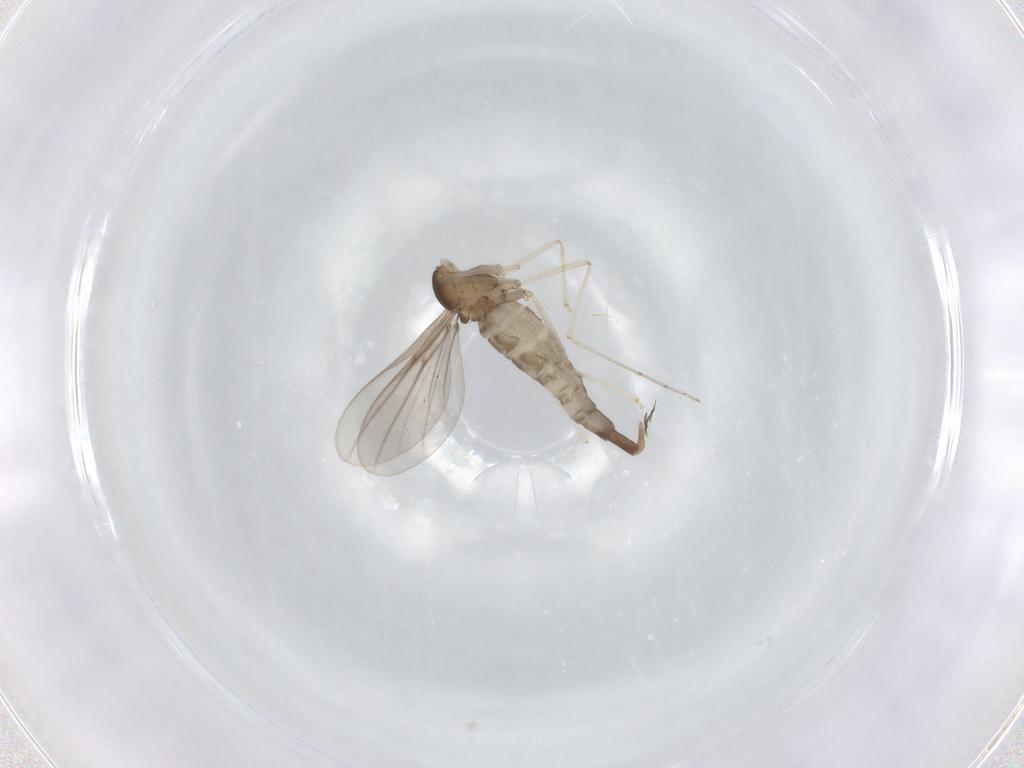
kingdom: Animalia
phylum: Arthropoda
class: Insecta
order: Diptera
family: Cecidomyiidae
